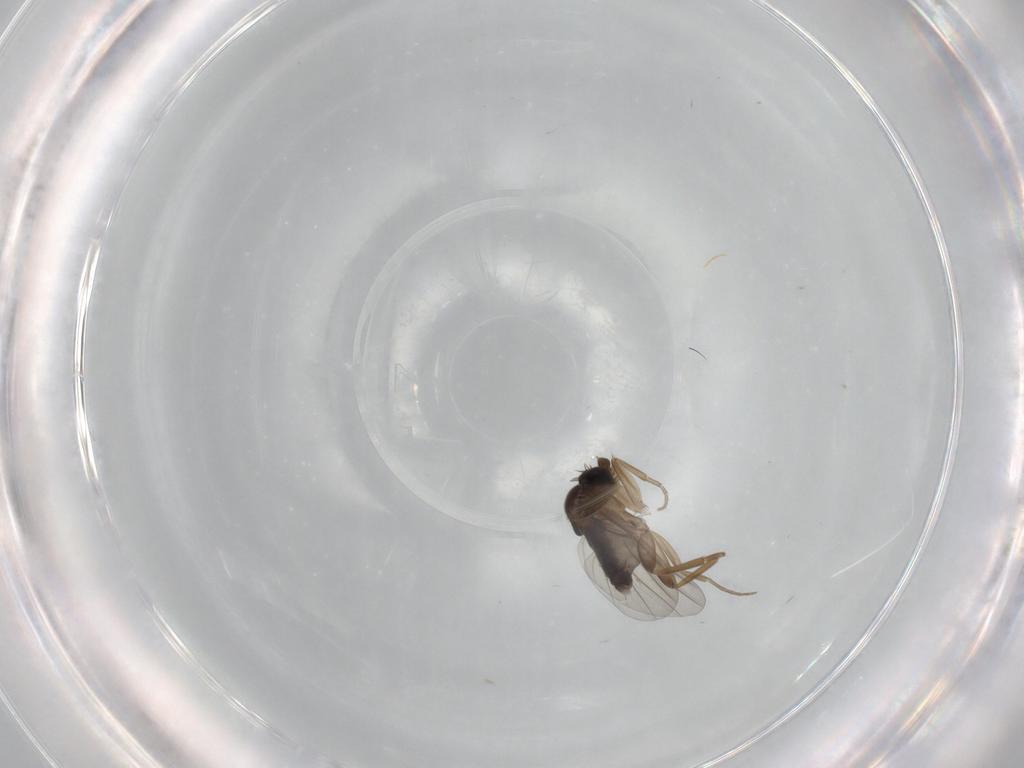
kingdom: Animalia
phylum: Arthropoda
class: Insecta
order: Diptera
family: Phoridae
